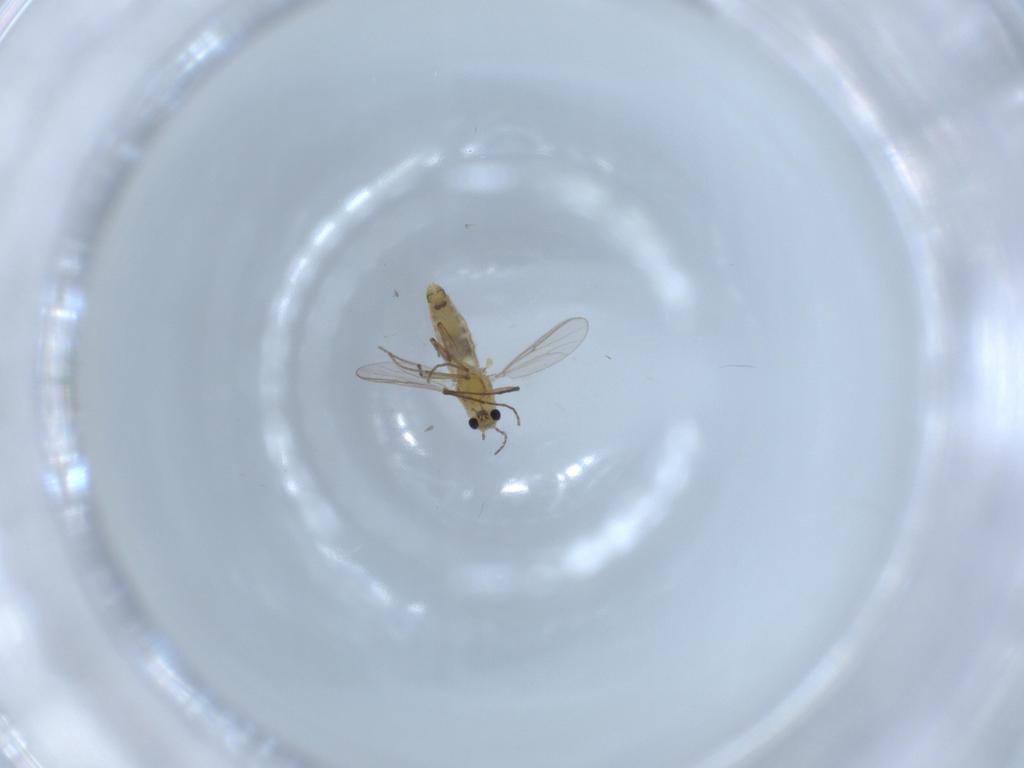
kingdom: Animalia
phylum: Arthropoda
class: Insecta
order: Diptera
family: Chironomidae
